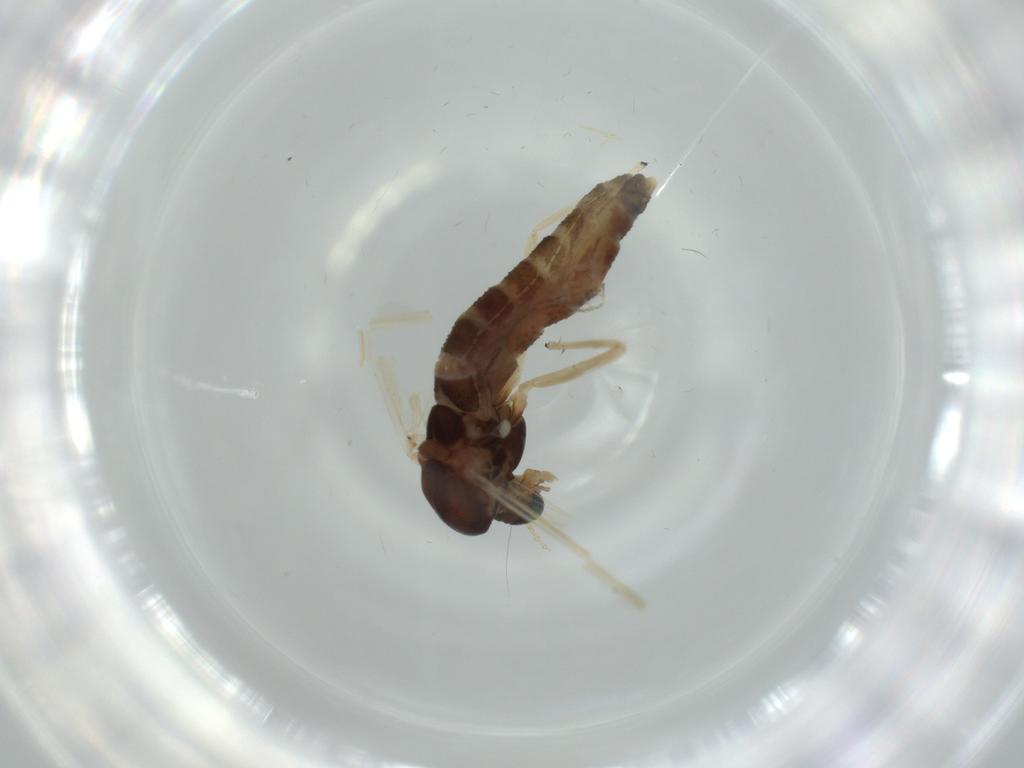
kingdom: Animalia
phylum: Arthropoda
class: Insecta
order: Diptera
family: Chironomidae
